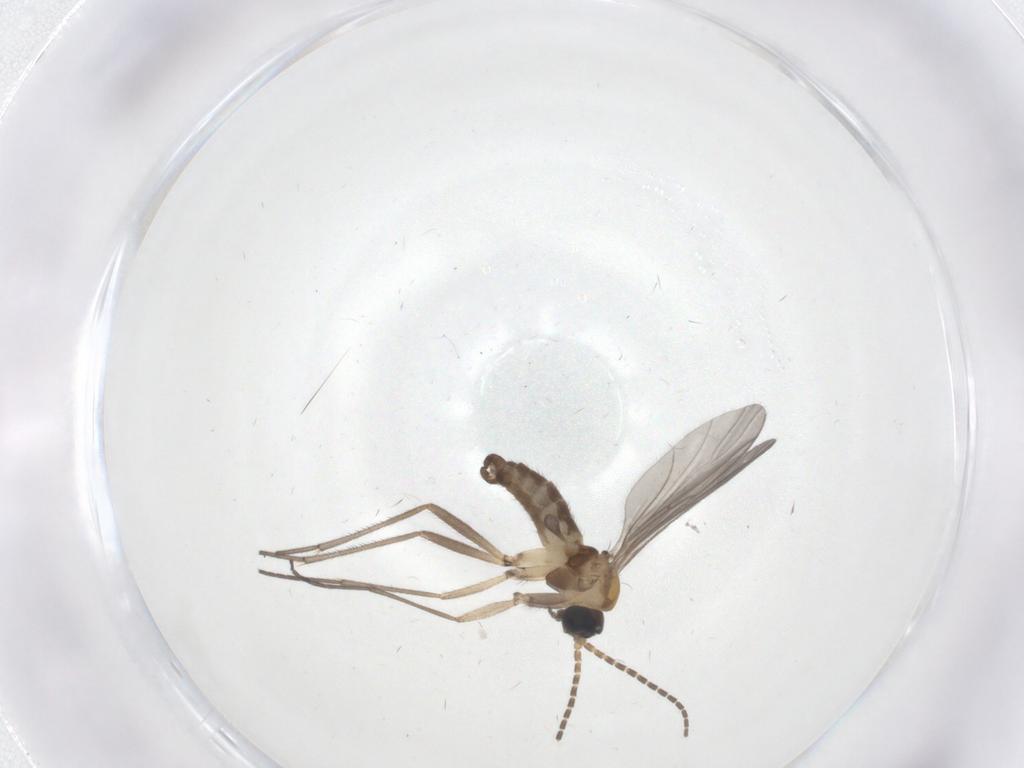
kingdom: Animalia
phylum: Arthropoda
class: Insecta
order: Diptera
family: Sciaridae
